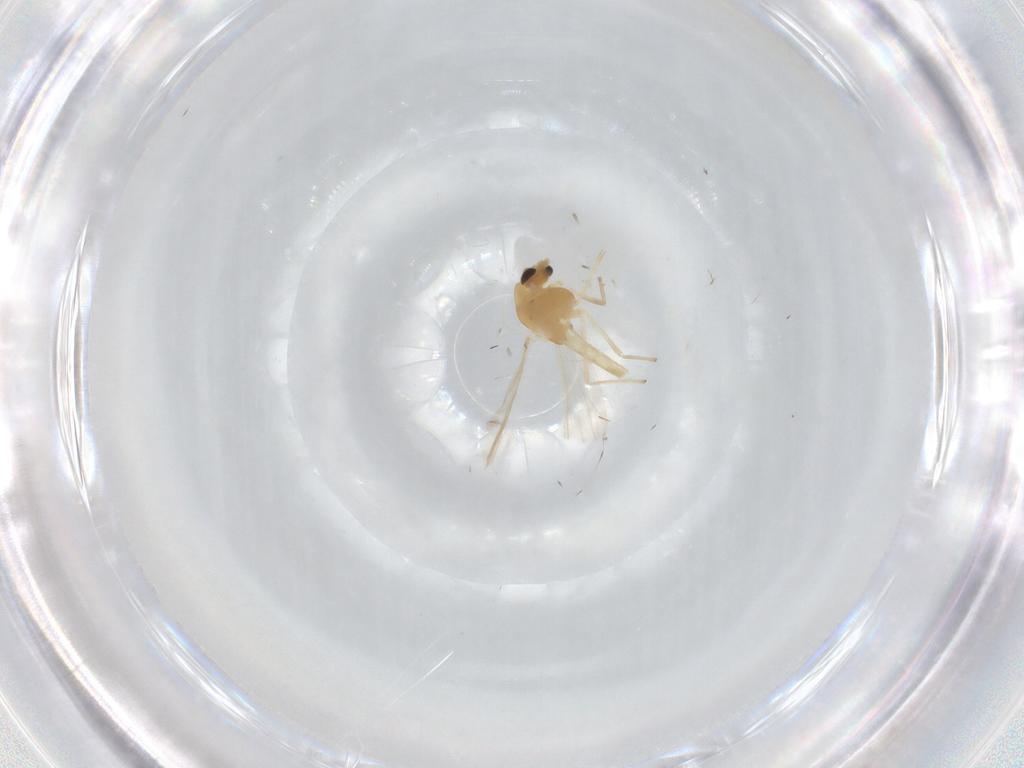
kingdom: Animalia
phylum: Arthropoda
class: Insecta
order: Diptera
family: Chironomidae
